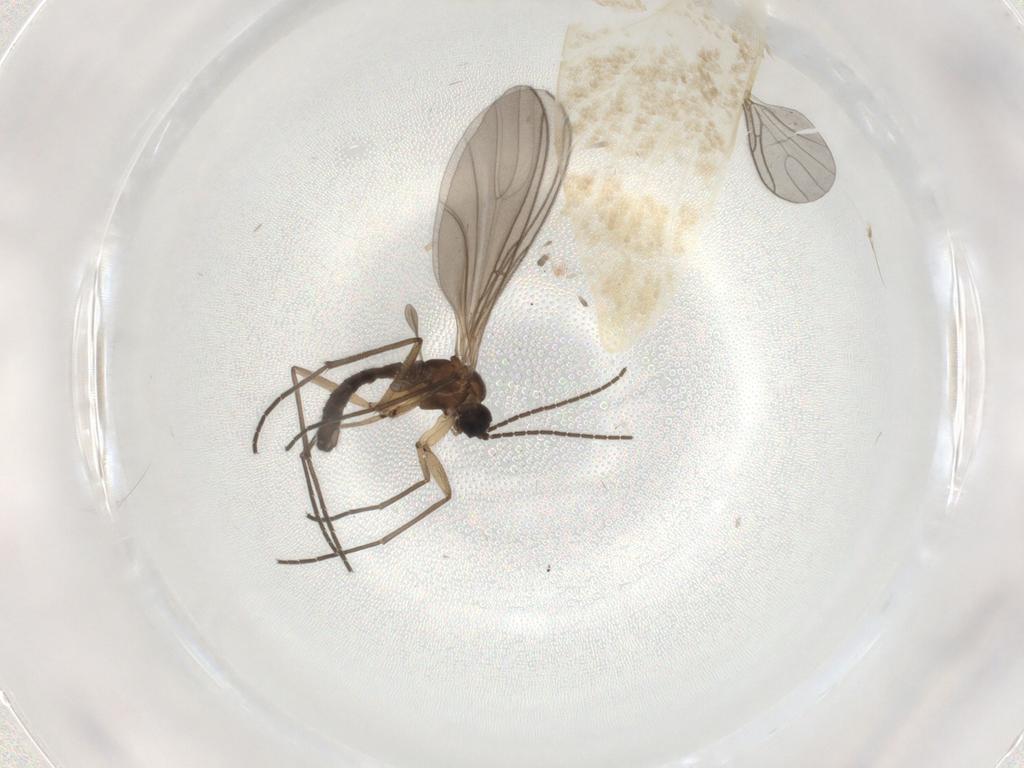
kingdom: Animalia
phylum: Arthropoda
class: Insecta
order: Diptera
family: Sciaridae
